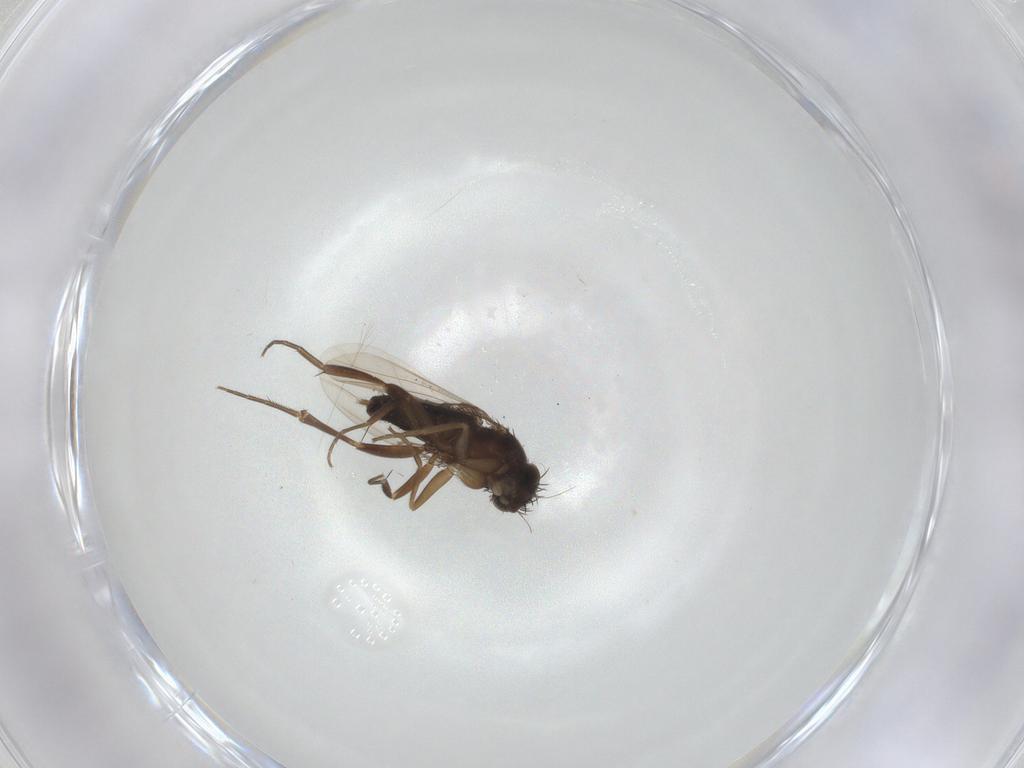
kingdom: Animalia
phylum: Arthropoda
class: Insecta
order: Diptera
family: Phoridae
